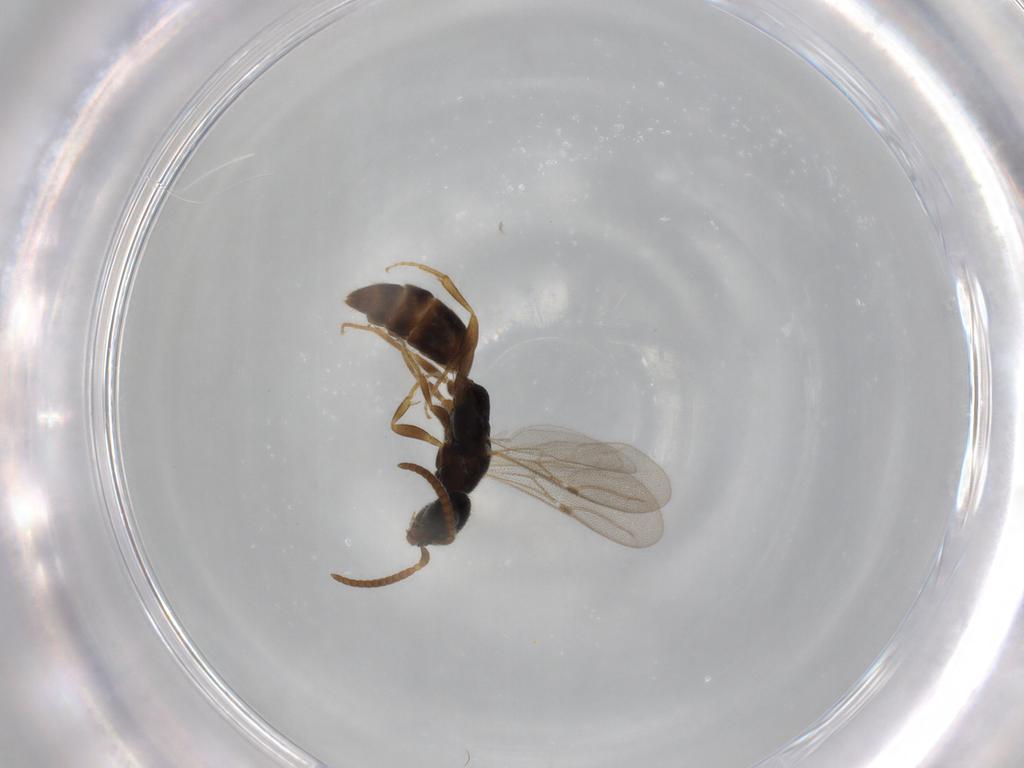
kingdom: Animalia
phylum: Arthropoda
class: Insecta
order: Hymenoptera
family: Bethylidae
